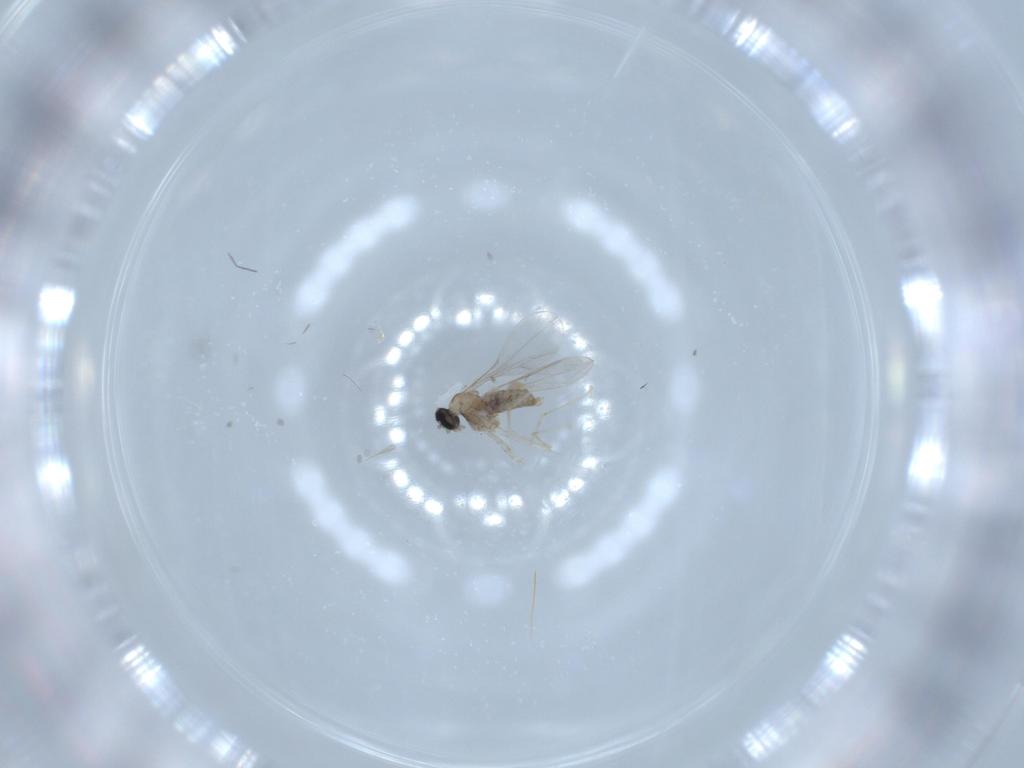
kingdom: Animalia
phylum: Arthropoda
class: Insecta
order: Diptera
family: Cecidomyiidae
